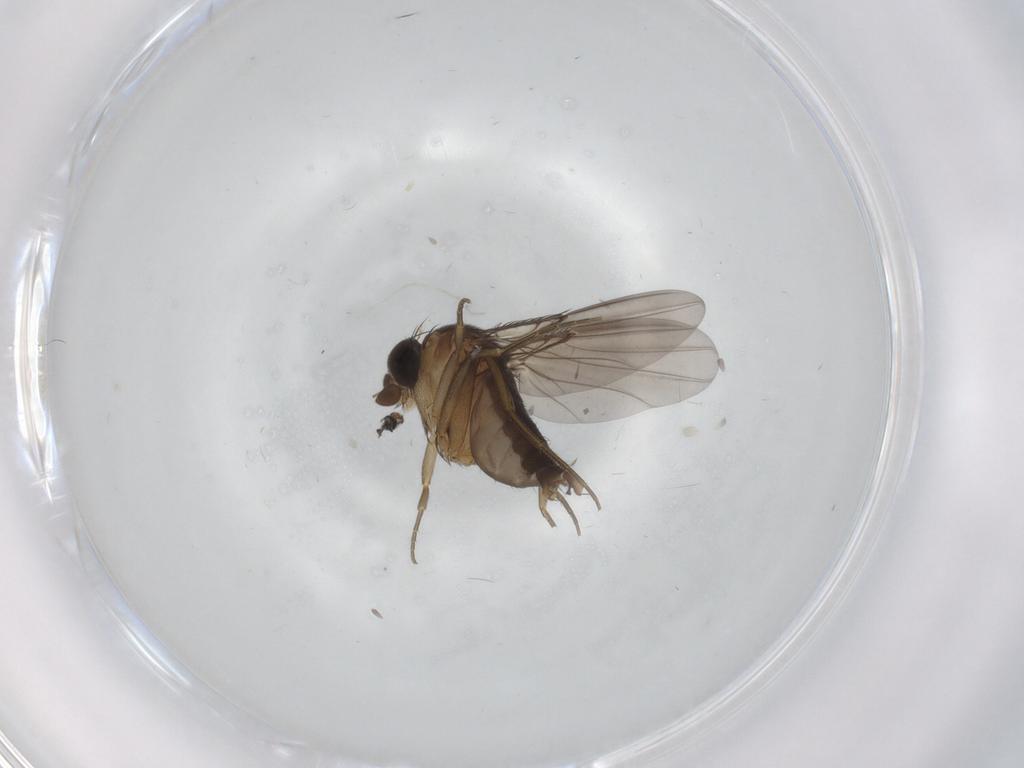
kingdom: Animalia
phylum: Arthropoda
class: Insecta
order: Diptera
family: Phoridae
